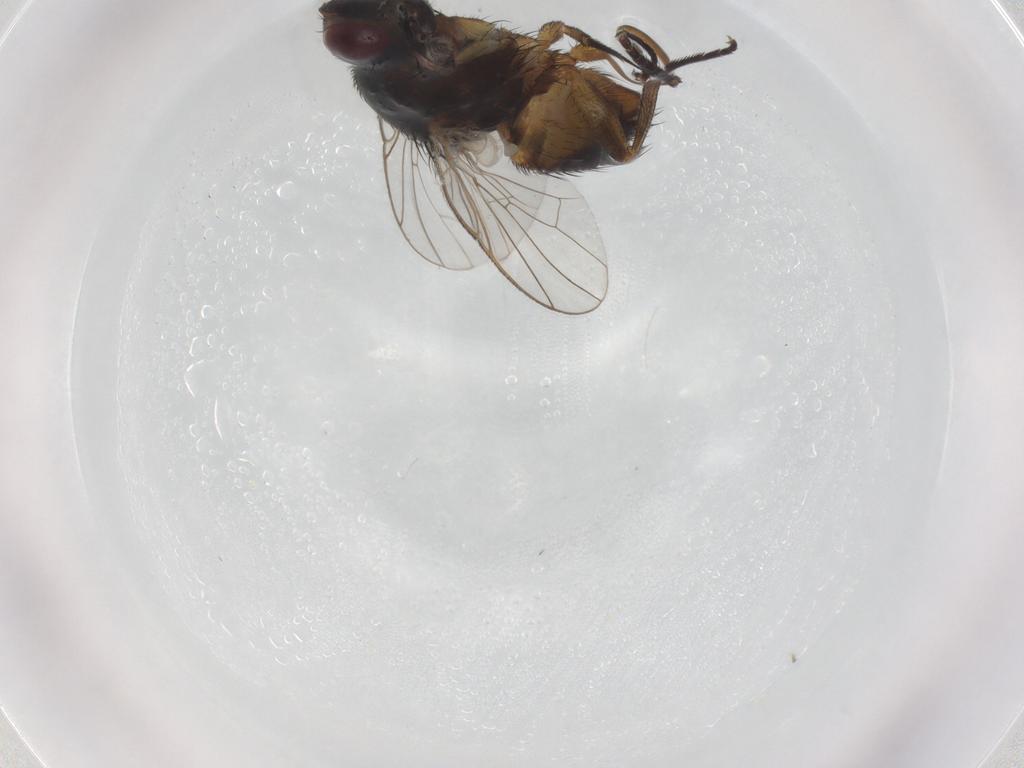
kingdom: Animalia
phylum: Arthropoda
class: Insecta
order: Diptera
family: Muscidae
